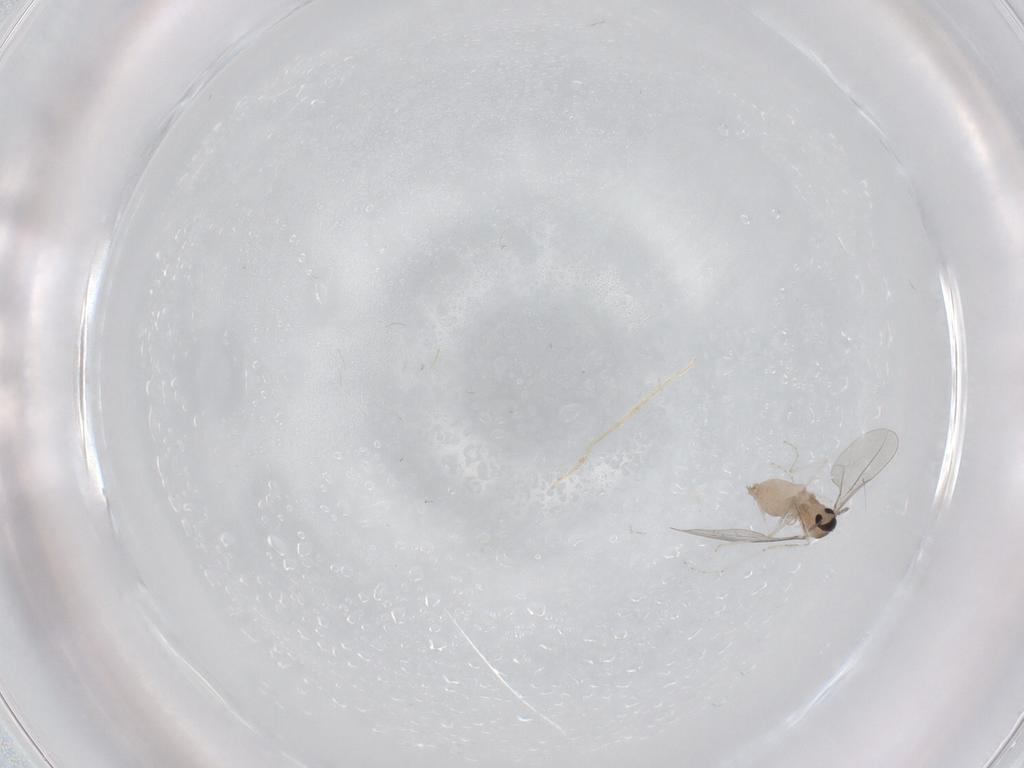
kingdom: Animalia
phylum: Arthropoda
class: Insecta
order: Diptera
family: Cecidomyiidae
